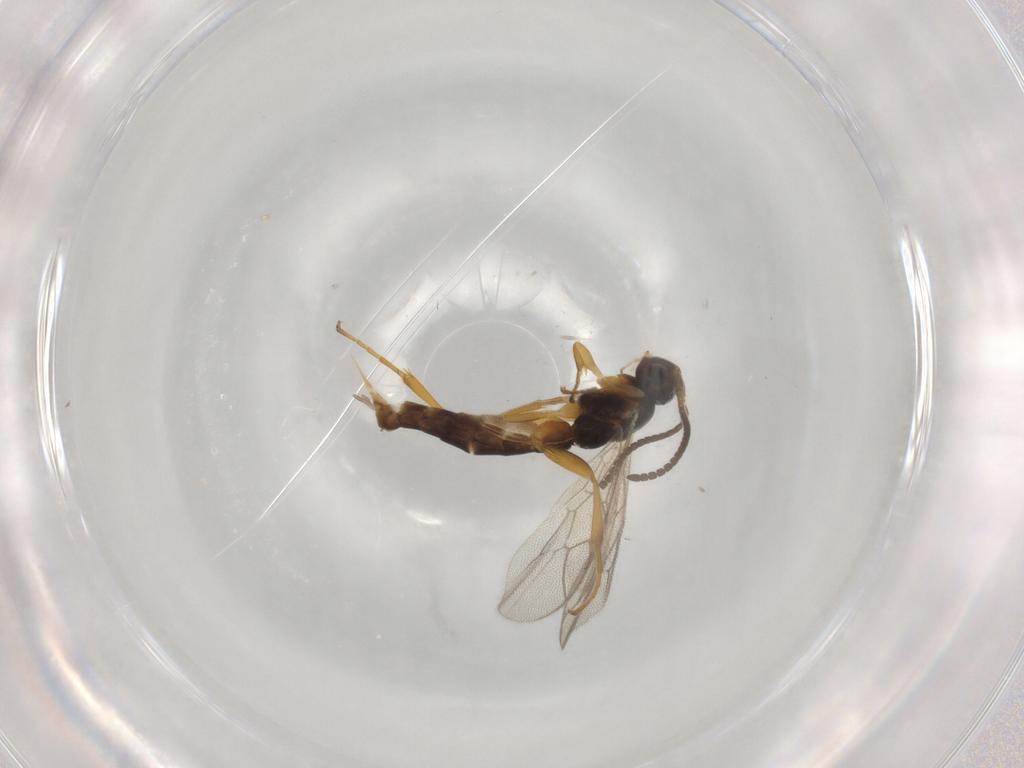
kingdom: Animalia
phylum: Arthropoda
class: Insecta
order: Hymenoptera
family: Ichneumonidae
